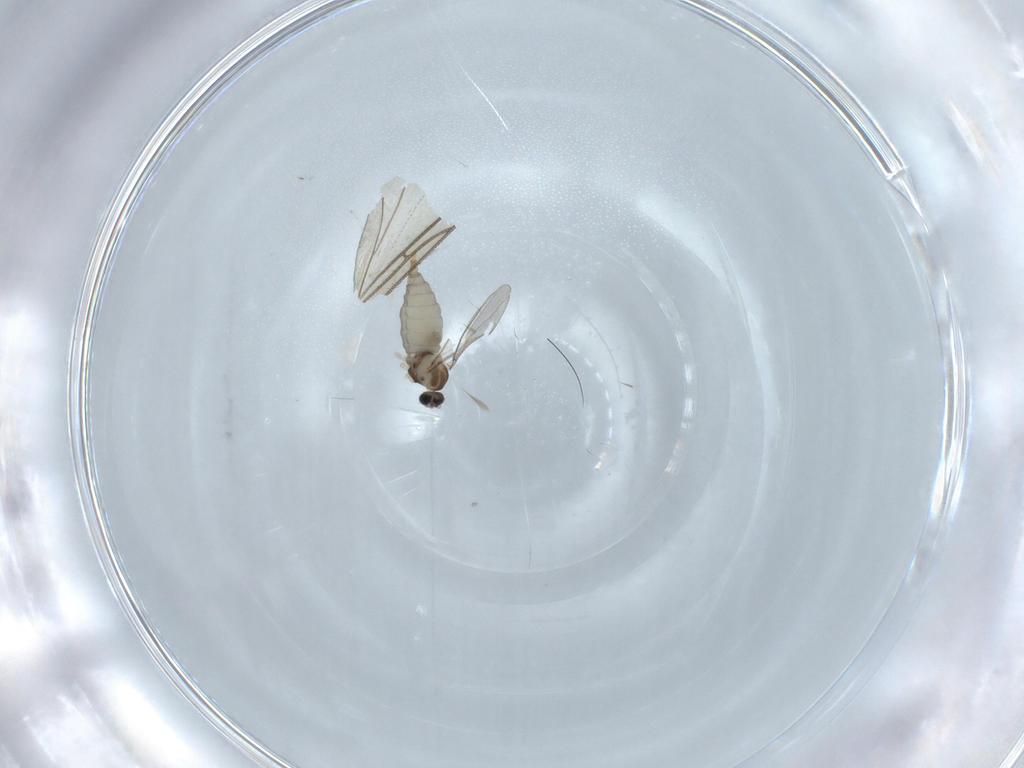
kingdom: Animalia
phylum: Arthropoda
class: Insecta
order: Diptera
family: Sciaridae
